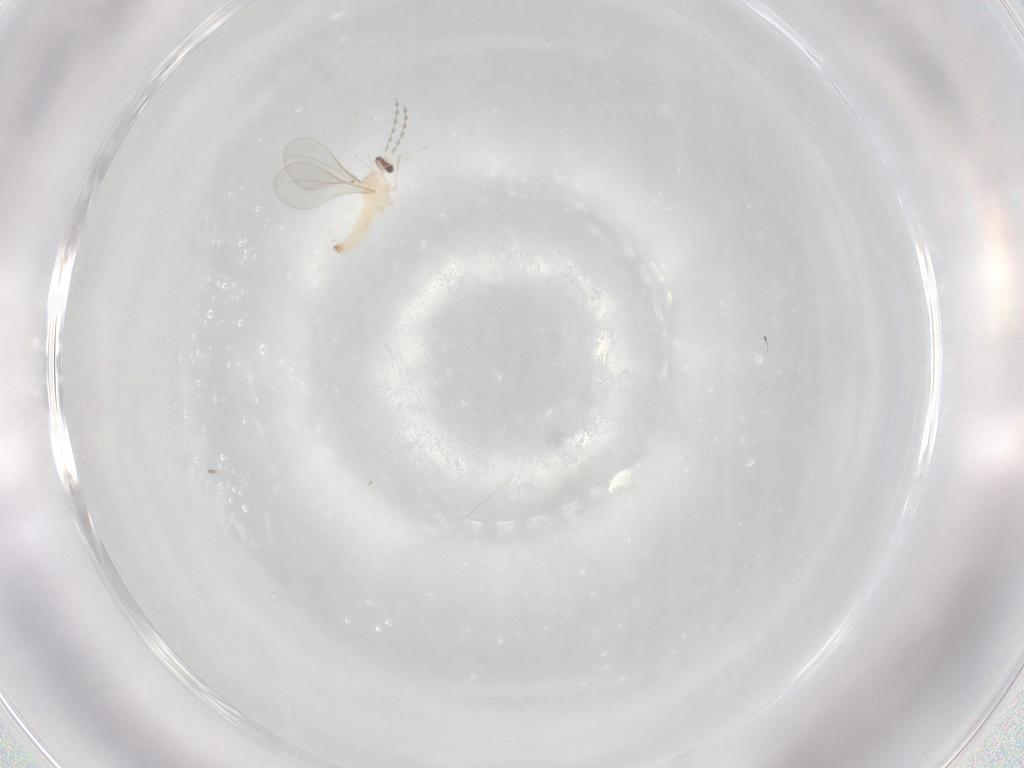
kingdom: Animalia
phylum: Arthropoda
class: Insecta
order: Diptera
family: Cecidomyiidae
